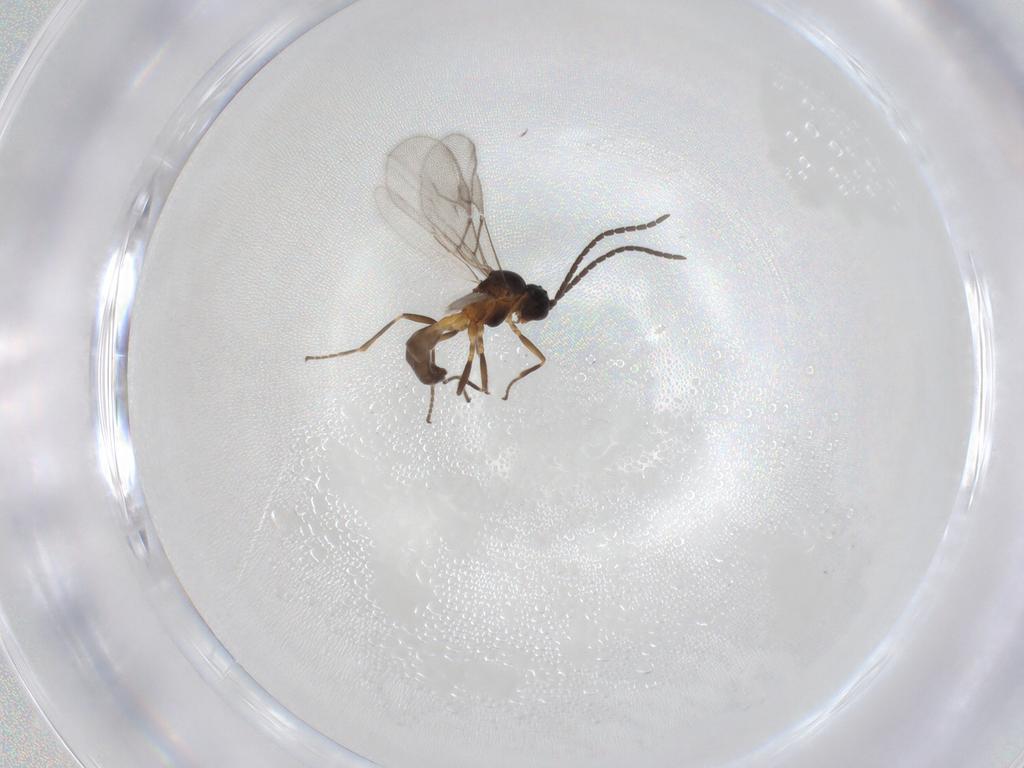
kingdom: Animalia
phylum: Arthropoda
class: Insecta
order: Hymenoptera
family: Braconidae
